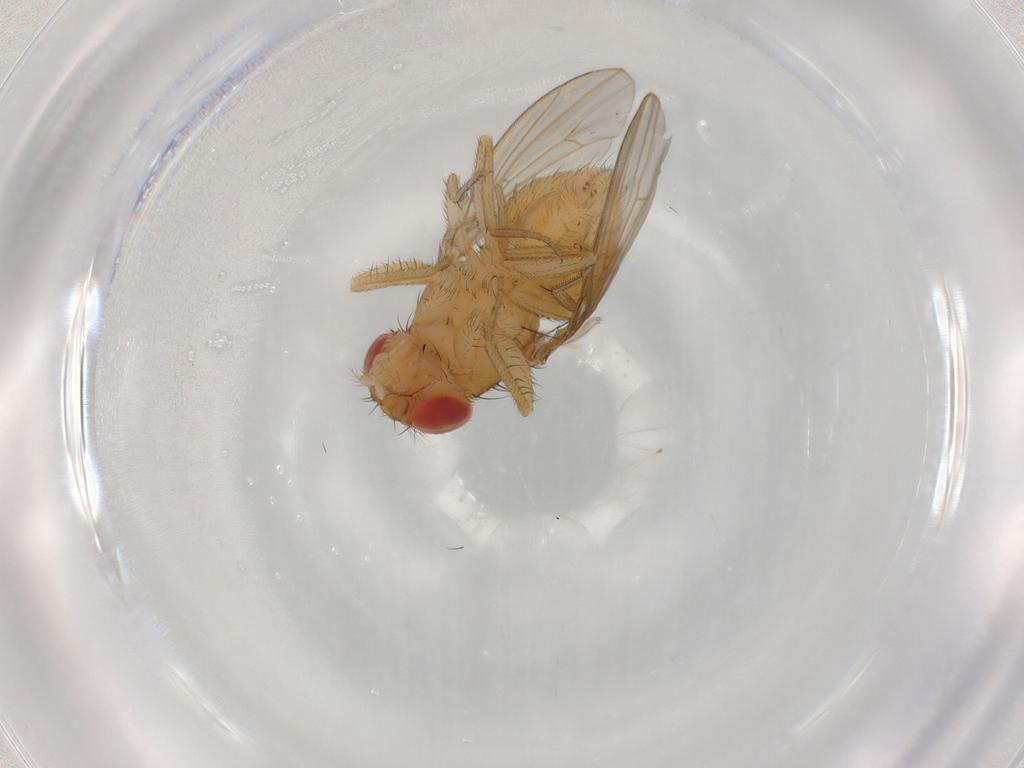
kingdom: Animalia
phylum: Arthropoda
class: Insecta
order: Diptera
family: Drosophilidae
